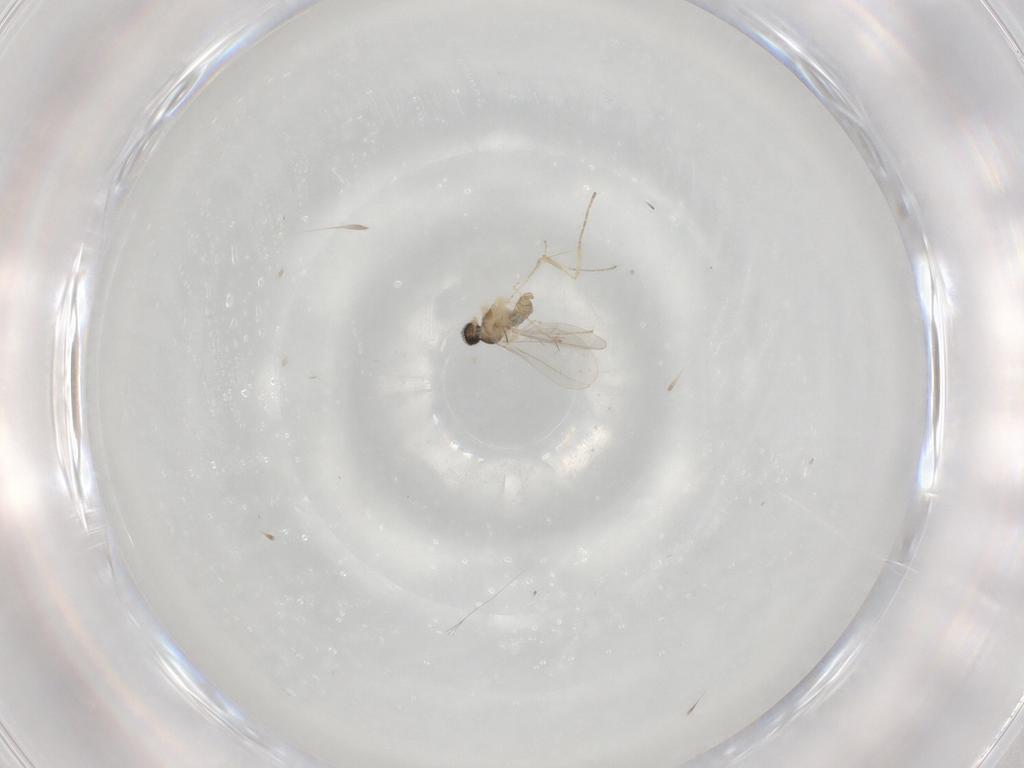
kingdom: Animalia
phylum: Arthropoda
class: Insecta
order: Diptera
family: Cecidomyiidae
